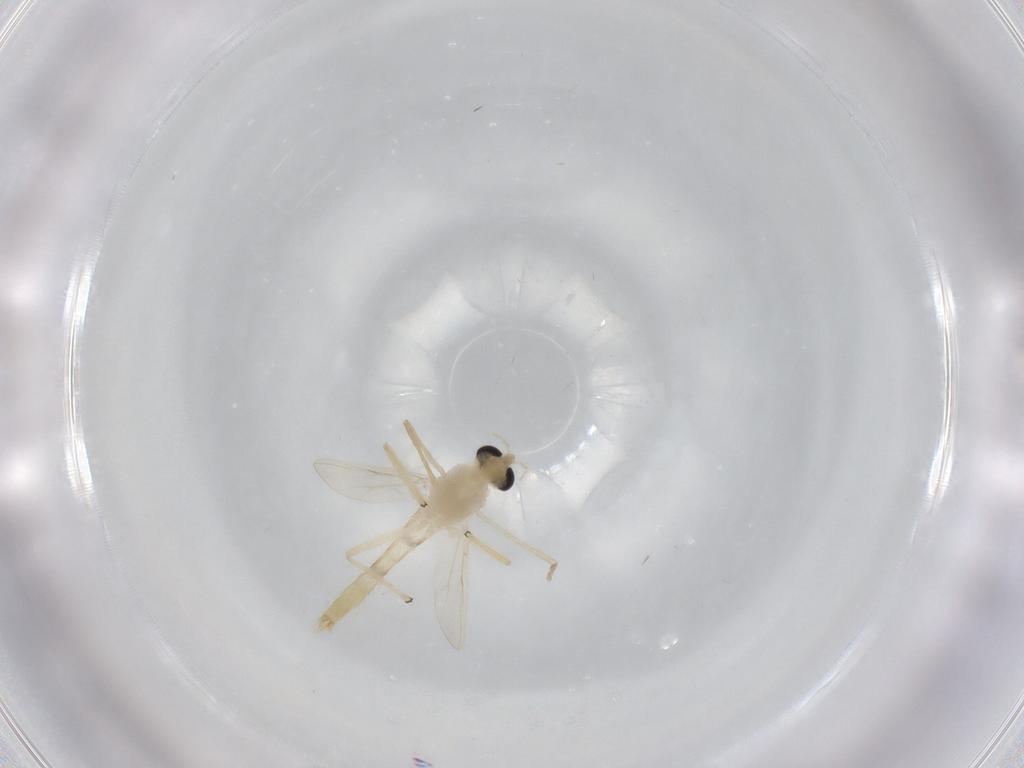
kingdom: Animalia
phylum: Arthropoda
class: Insecta
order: Diptera
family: Chironomidae
